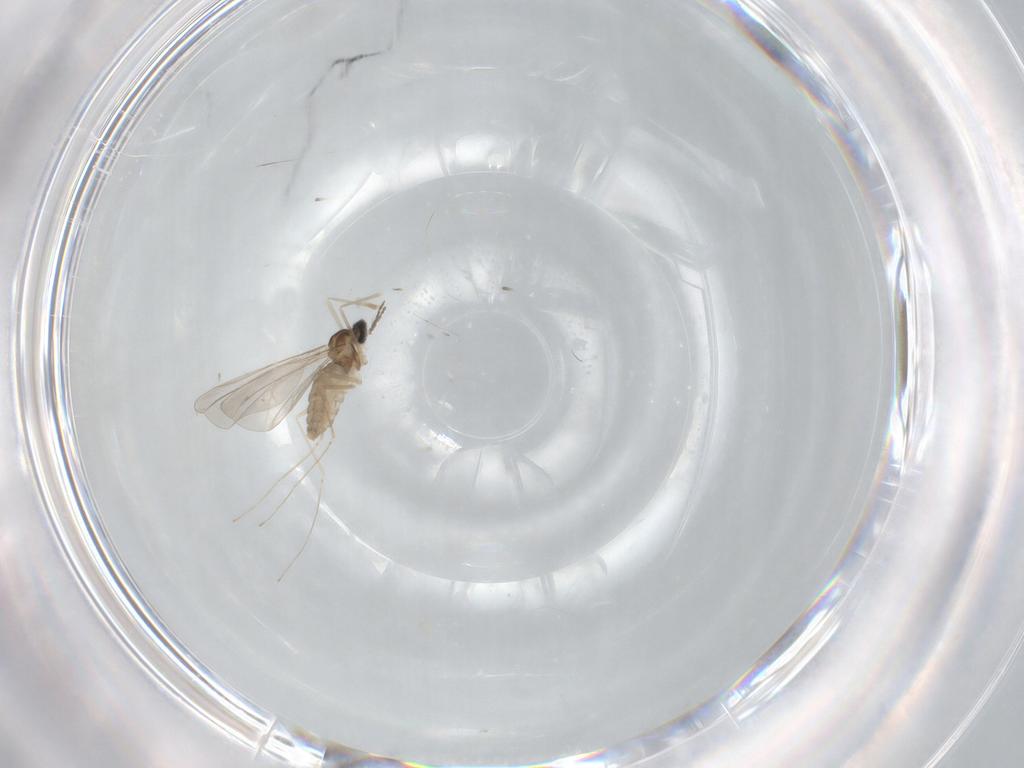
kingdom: Animalia
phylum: Arthropoda
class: Insecta
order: Diptera
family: Cecidomyiidae
